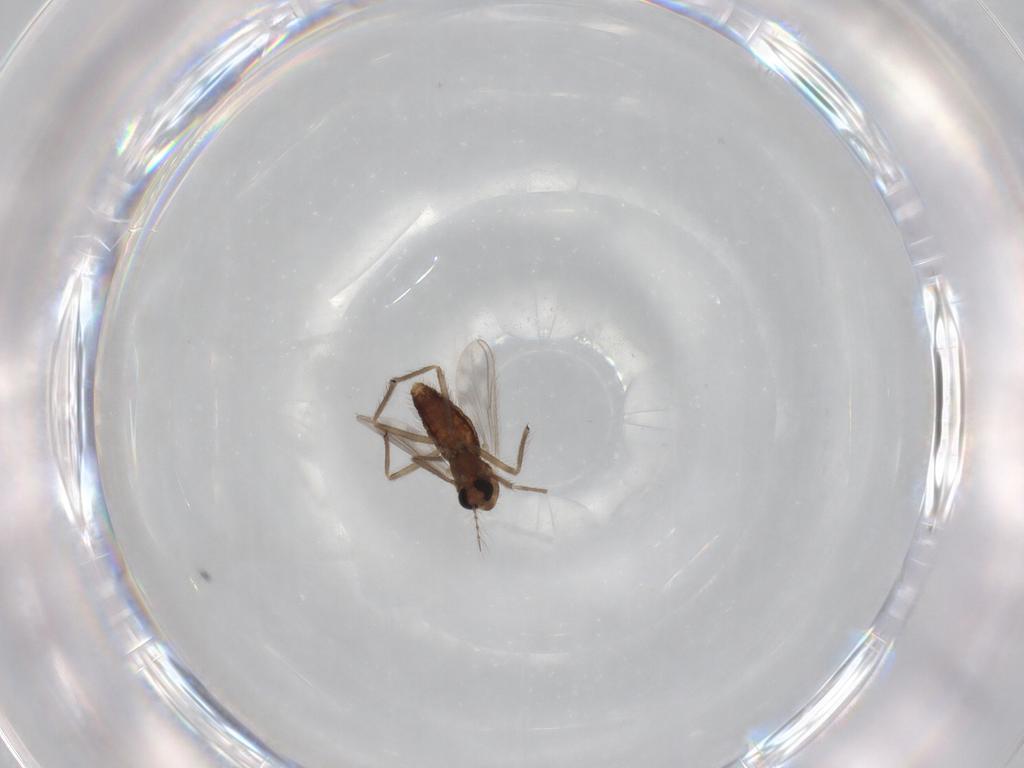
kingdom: Animalia
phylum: Arthropoda
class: Insecta
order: Diptera
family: Chironomidae
